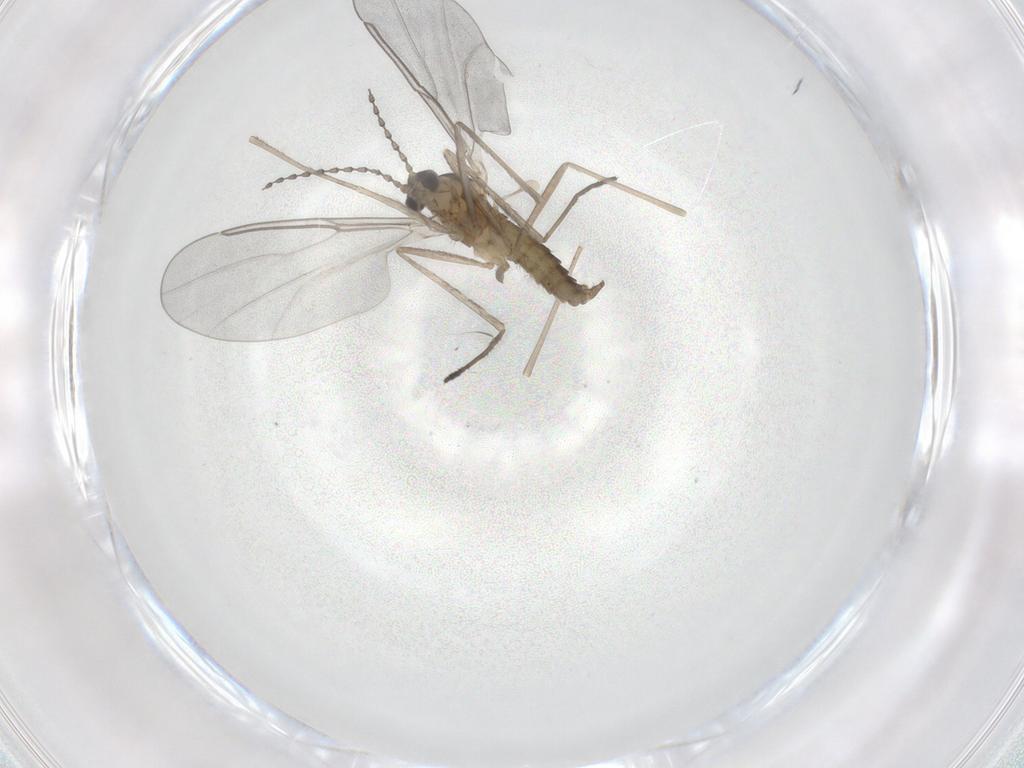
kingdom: Animalia
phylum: Arthropoda
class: Insecta
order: Diptera
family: Cecidomyiidae
